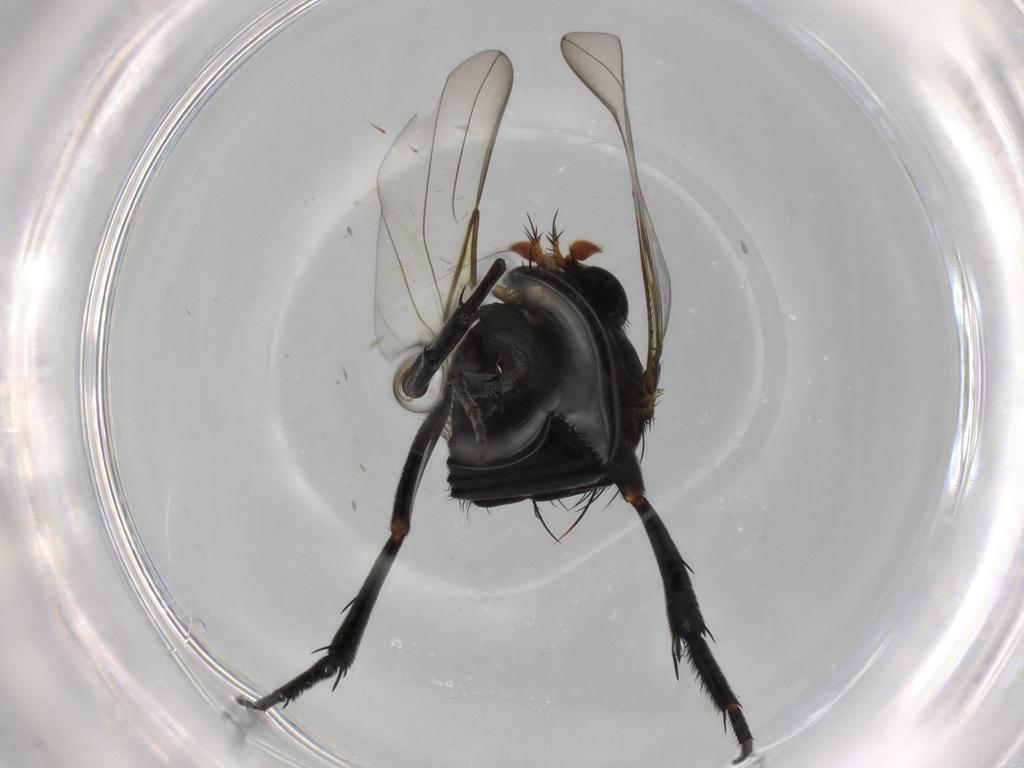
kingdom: Animalia
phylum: Arthropoda
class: Insecta
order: Diptera
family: Phoridae
